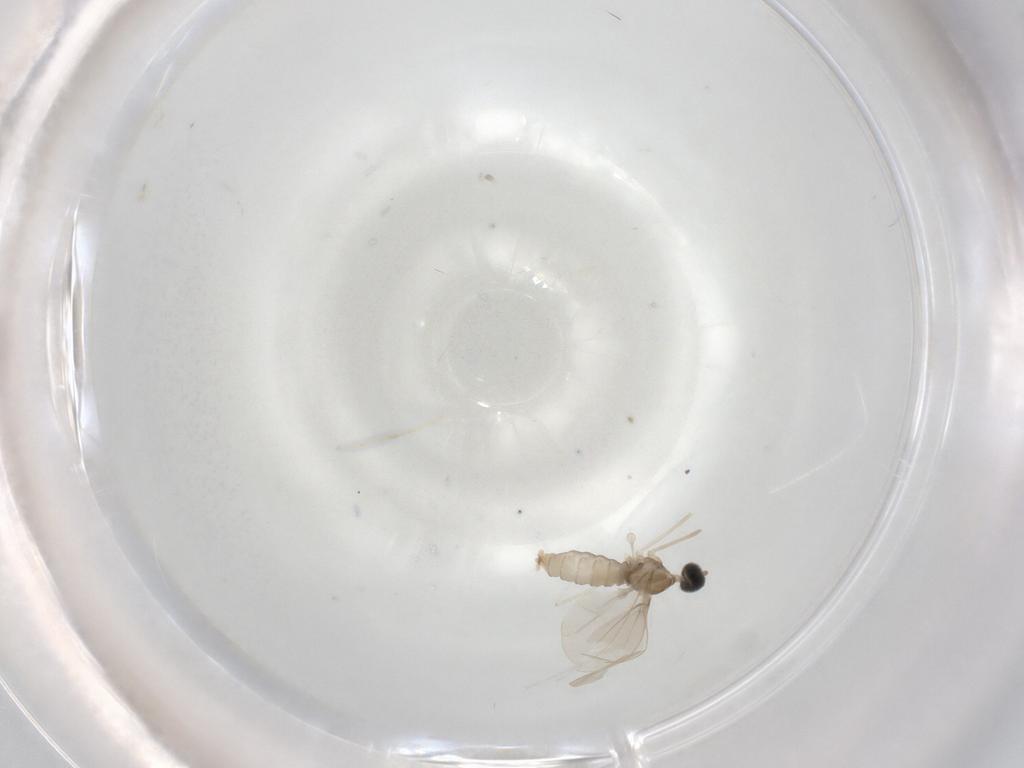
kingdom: Animalia
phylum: Arthropoda
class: Insecta
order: Diptera
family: Cecidomyiidae
